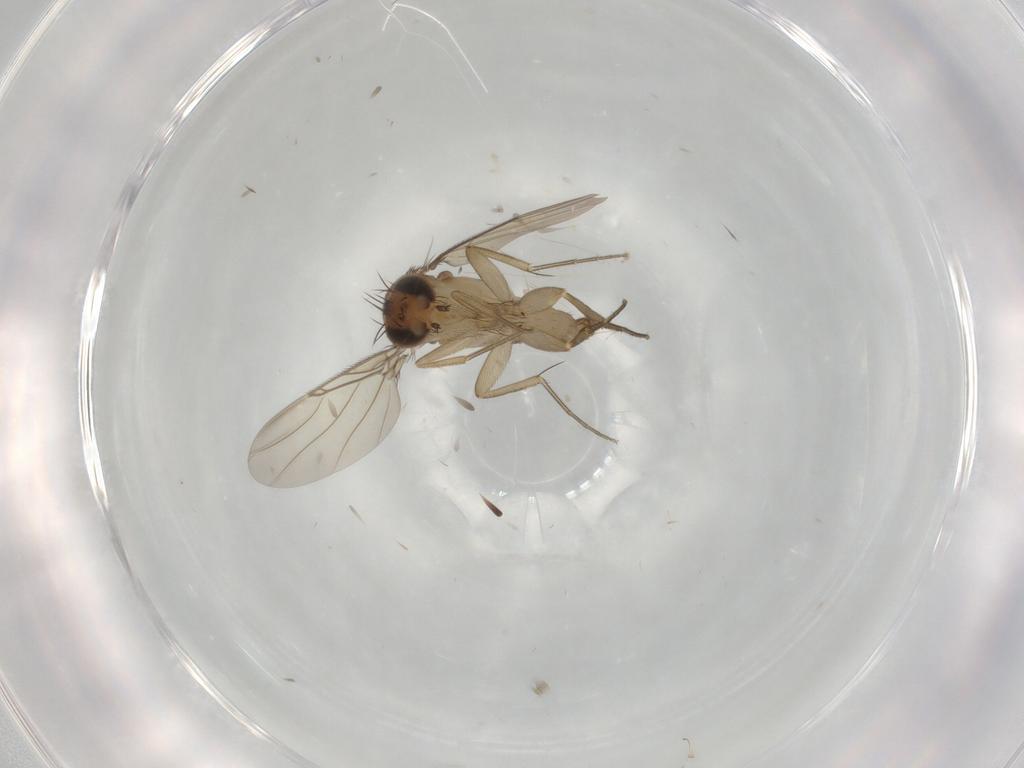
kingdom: Animalia
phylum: Arthropoda
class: Insecta
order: Diptera
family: Phoridae
